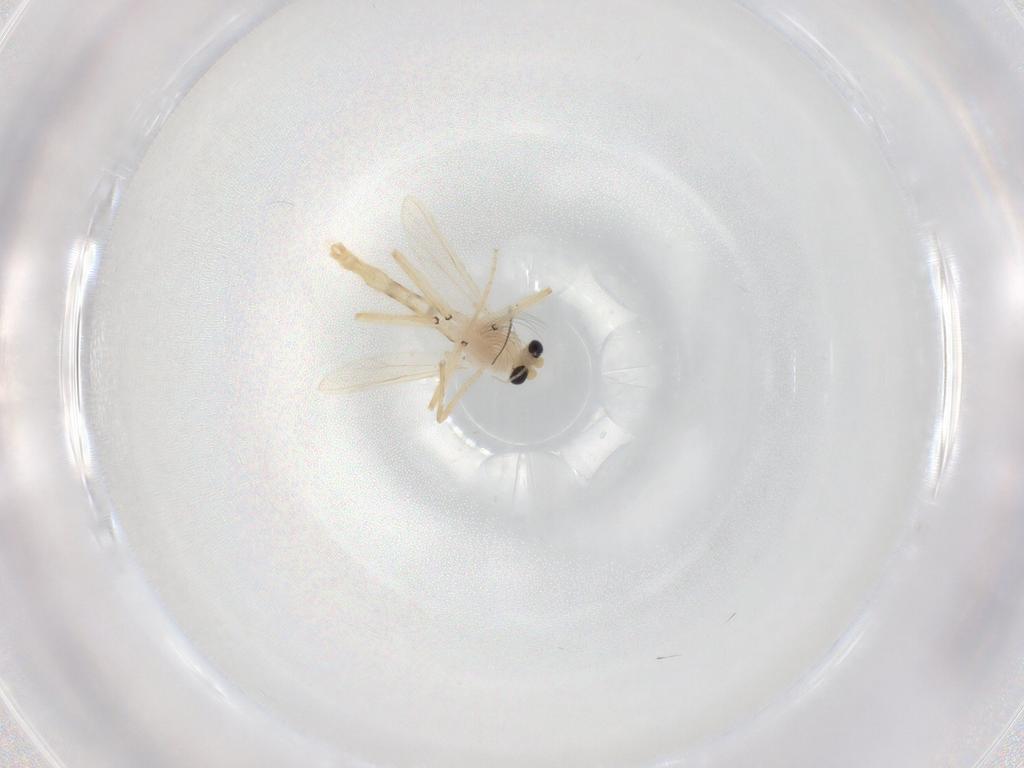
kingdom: Animalia
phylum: Arthropoda
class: Insecta
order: Diptera
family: Chironomidae
